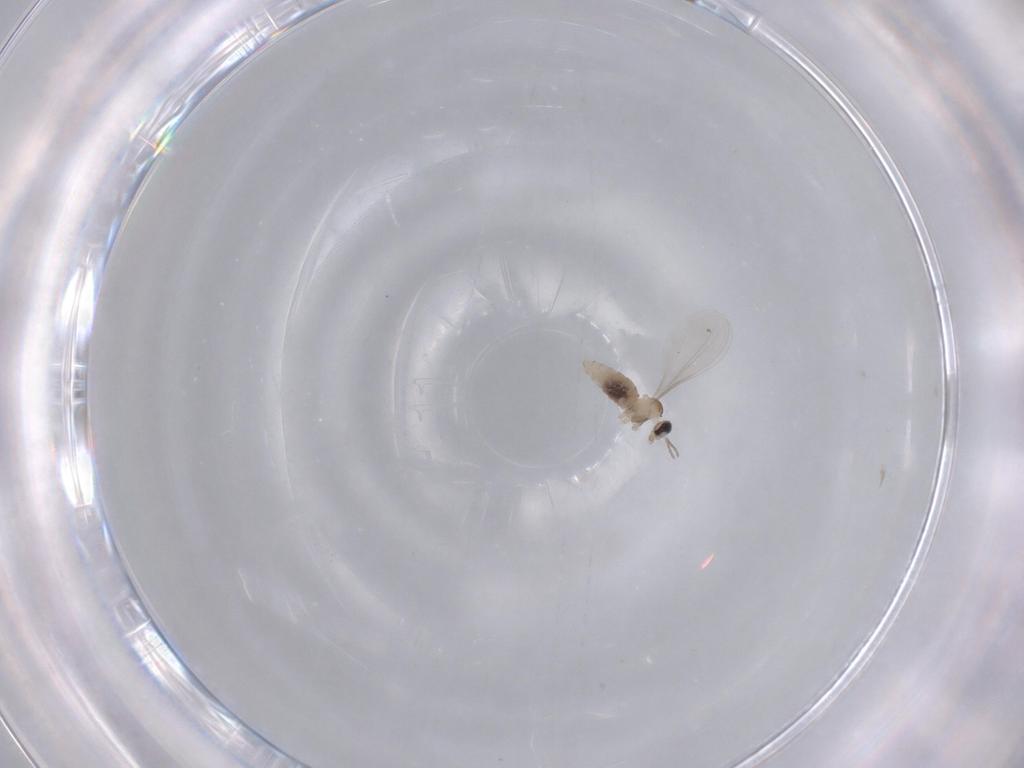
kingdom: Animalia
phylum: Arthropoda
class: Insecta
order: Diptera
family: Cecidomyiidae
